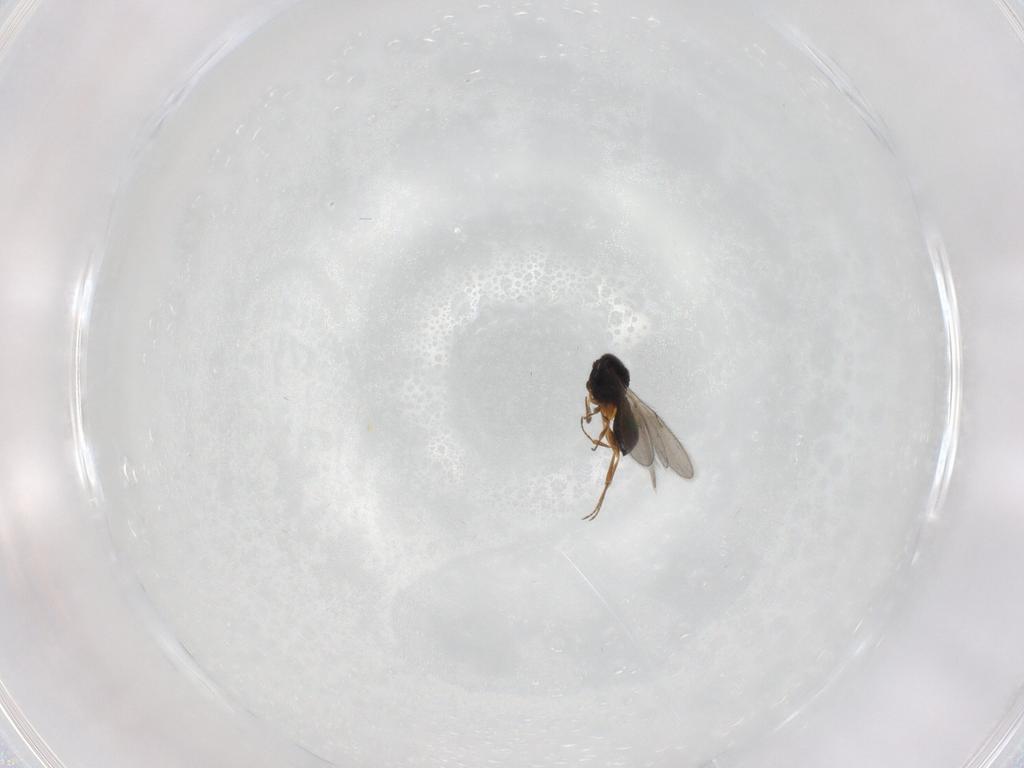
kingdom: Animalia
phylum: Arthropoda
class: Insecta
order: Hymenoptera
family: Scelionidae
